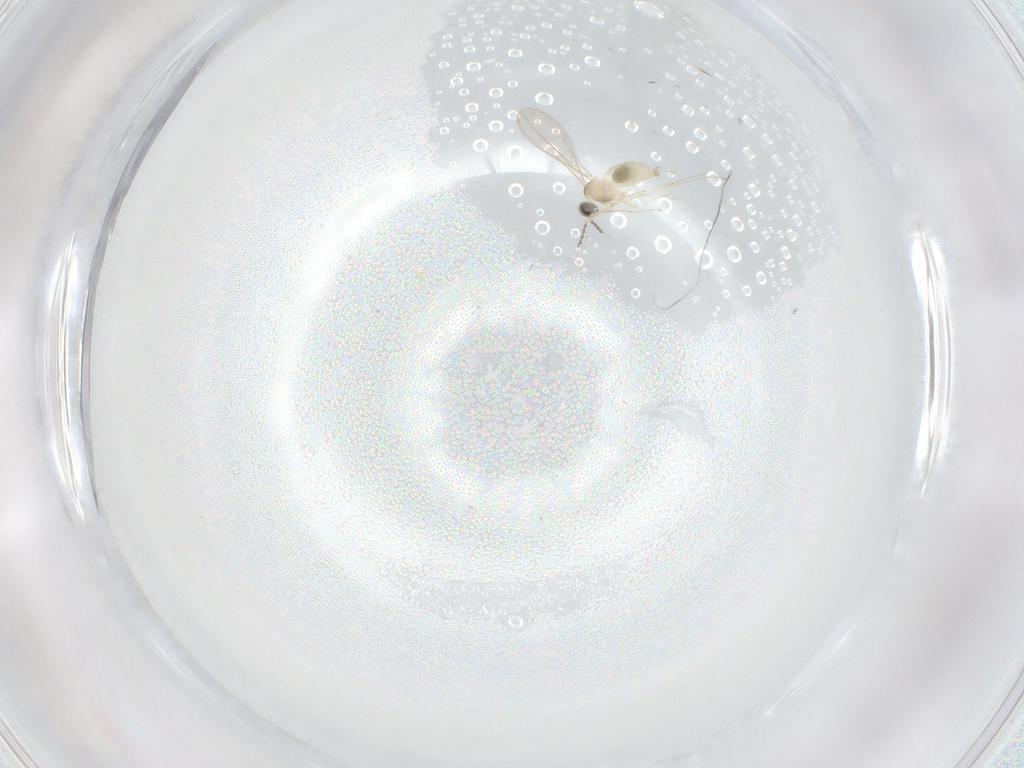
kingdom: Animalia
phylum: Arthropoda
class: Insecta
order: Diptera
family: Cecidomyiidae
